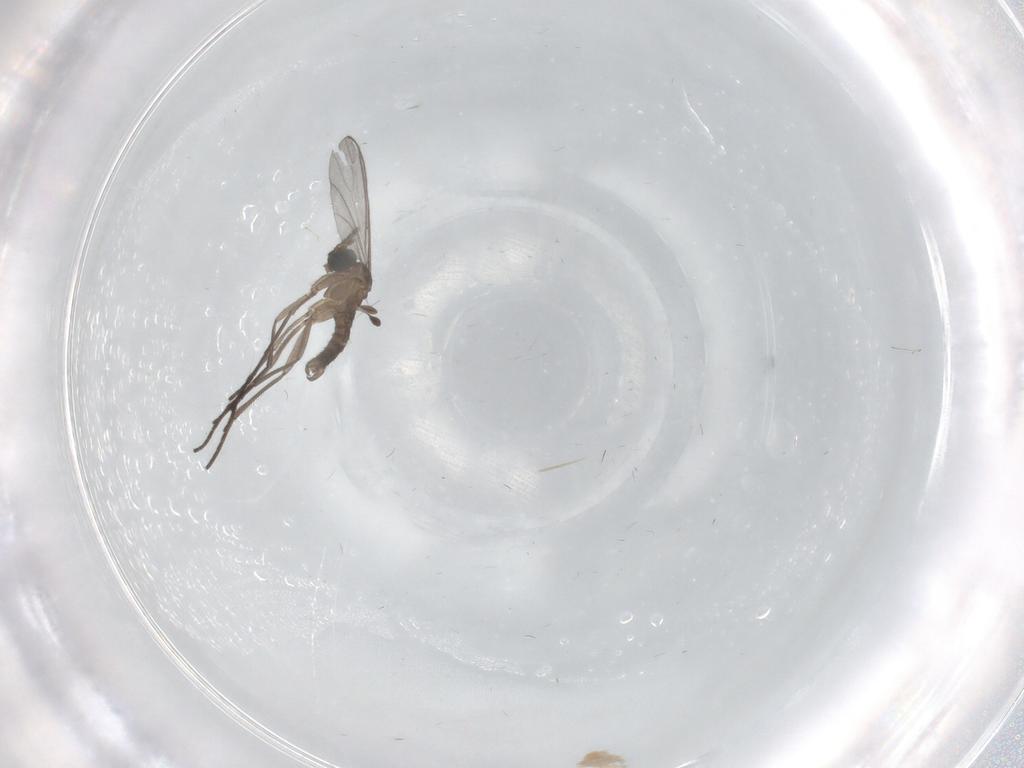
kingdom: Animalia
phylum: Arthropoda
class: Insecta
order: Diptera
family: Sciaridae
